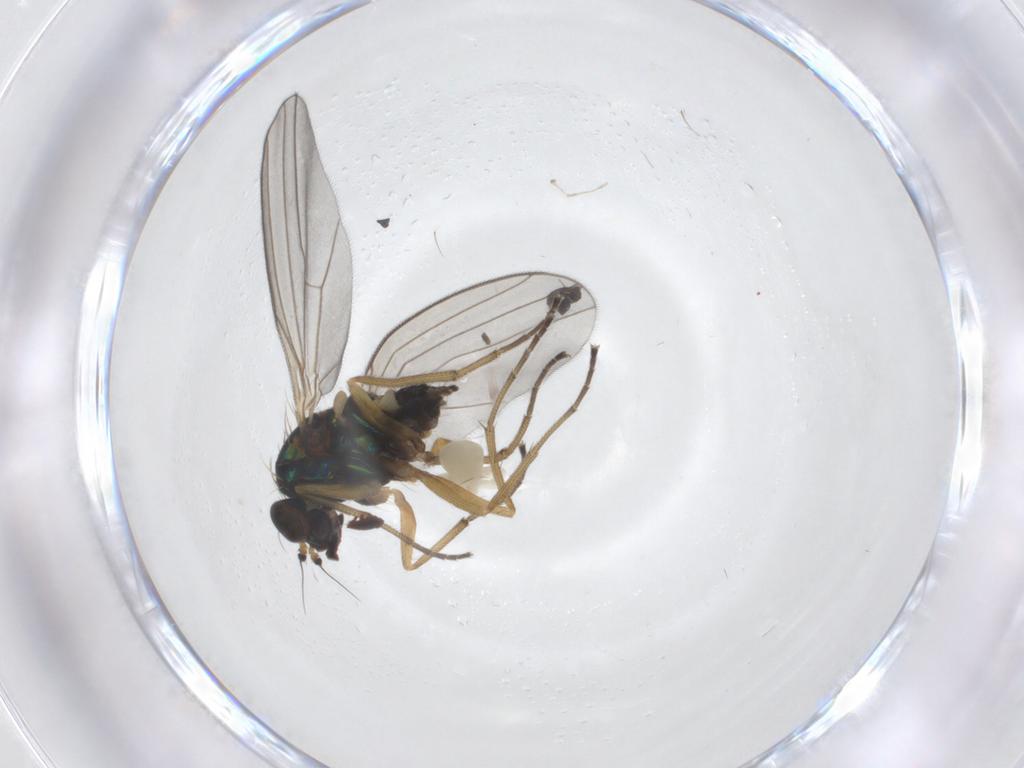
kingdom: Animalia
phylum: Arthropoda
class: Insecta
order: Diptera
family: Dolichopodidae
